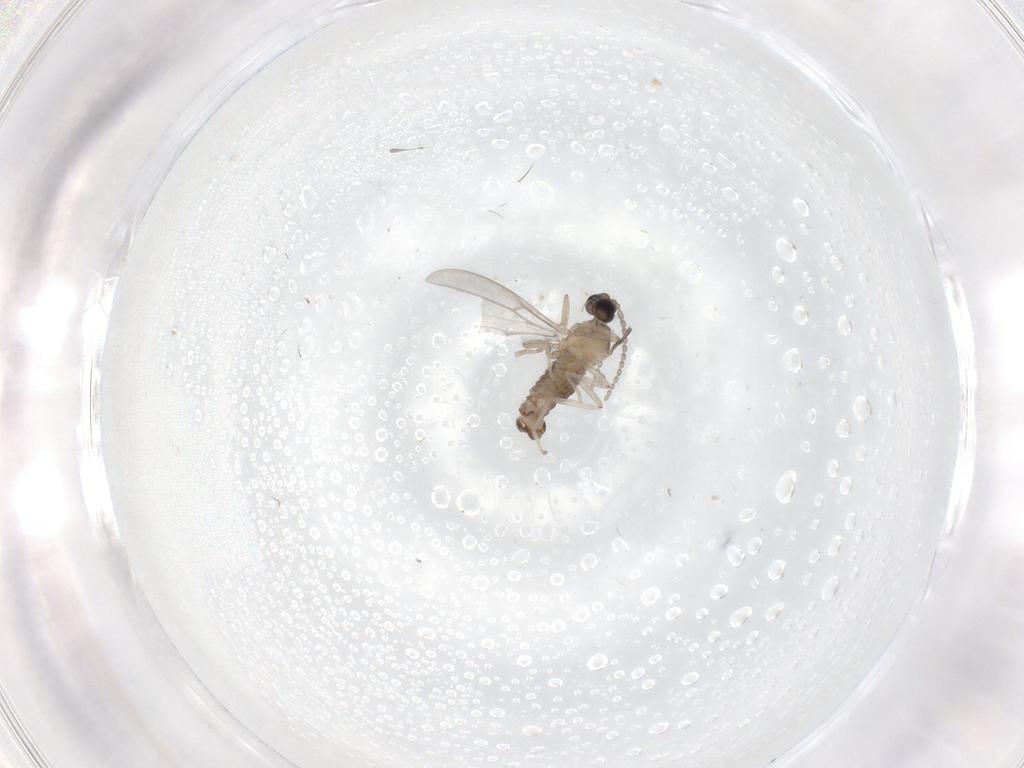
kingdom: Animalia
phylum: Arthropoda
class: Insecta
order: Diptera
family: Cecidomyiidae
